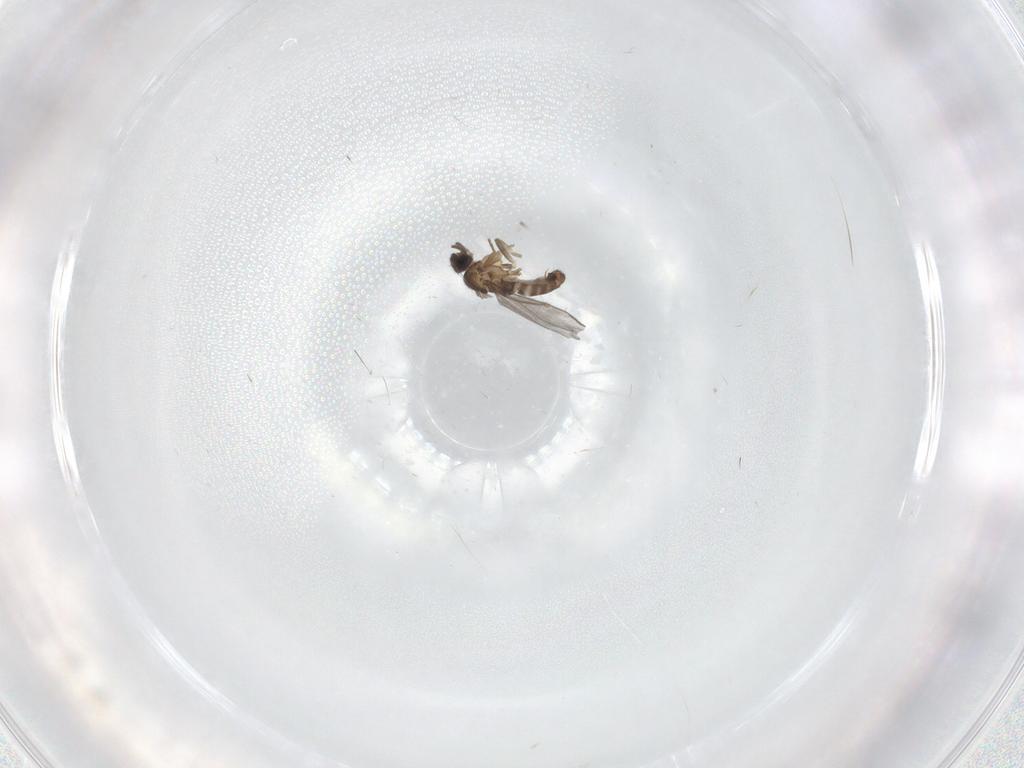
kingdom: Animalia
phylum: Arthropoda
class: Insecta
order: Diptera
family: Psychodidae
